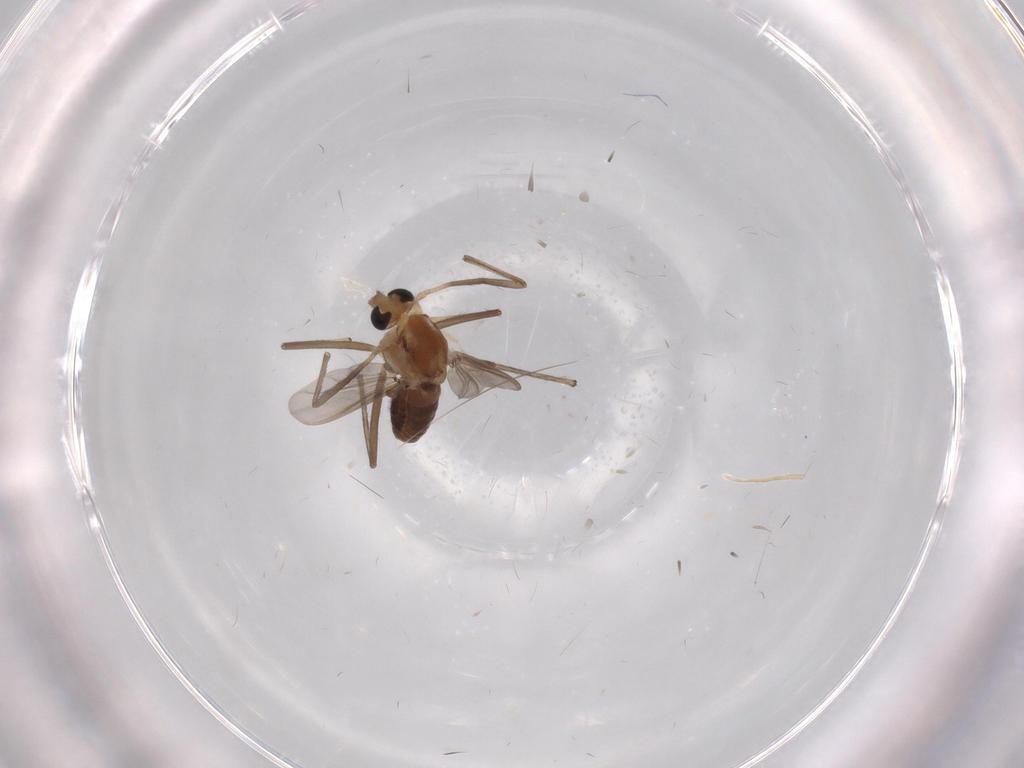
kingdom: Animalia
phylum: Arthropoda
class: Insecta
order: Diptera
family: Chironomidae
